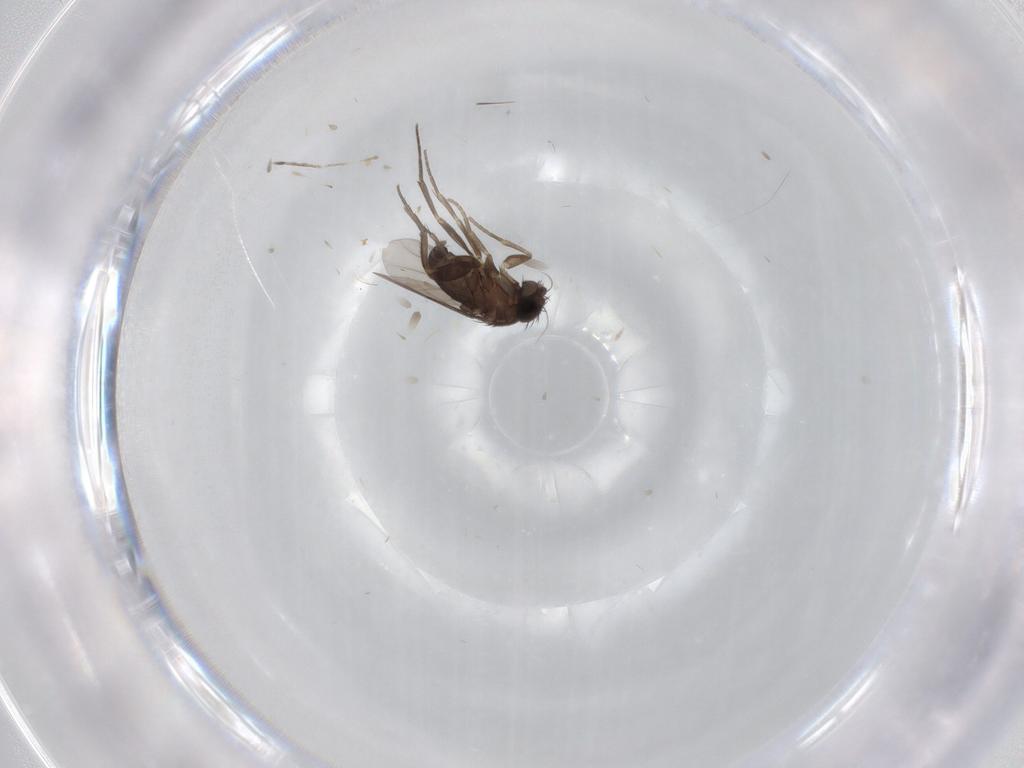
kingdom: Animalia
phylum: Arthropoda
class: Insecta
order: Diptera
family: Phoridae
